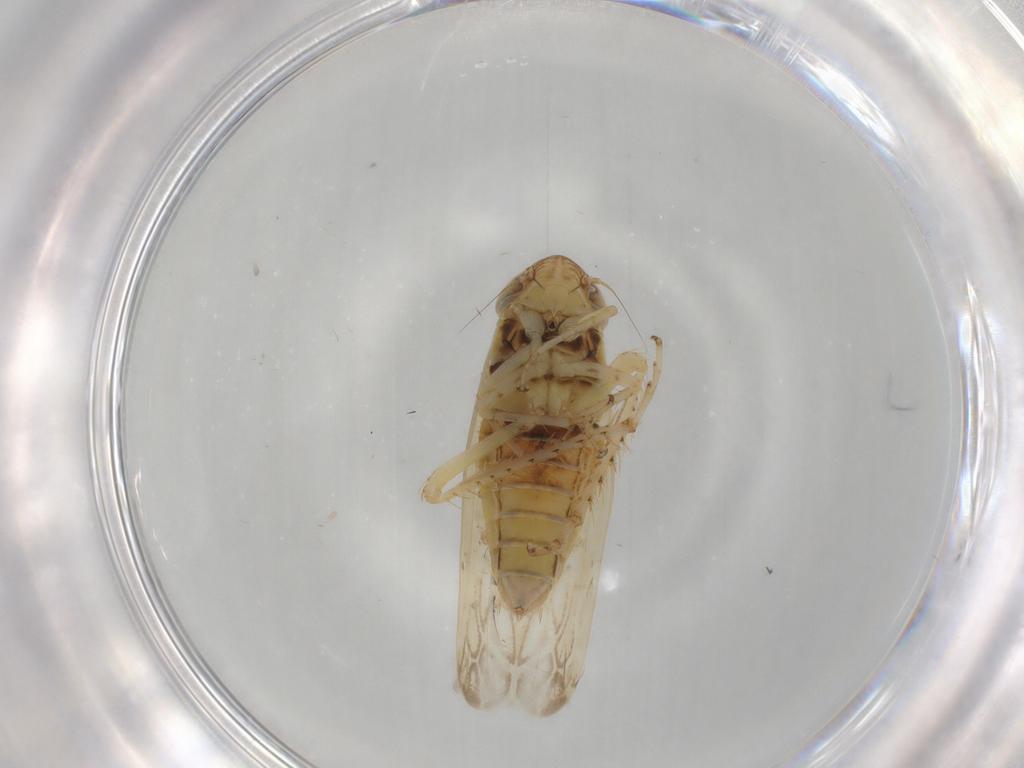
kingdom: Animalia
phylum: Arthropoda
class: Insecta
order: Hemiptera
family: Cicadellidae
